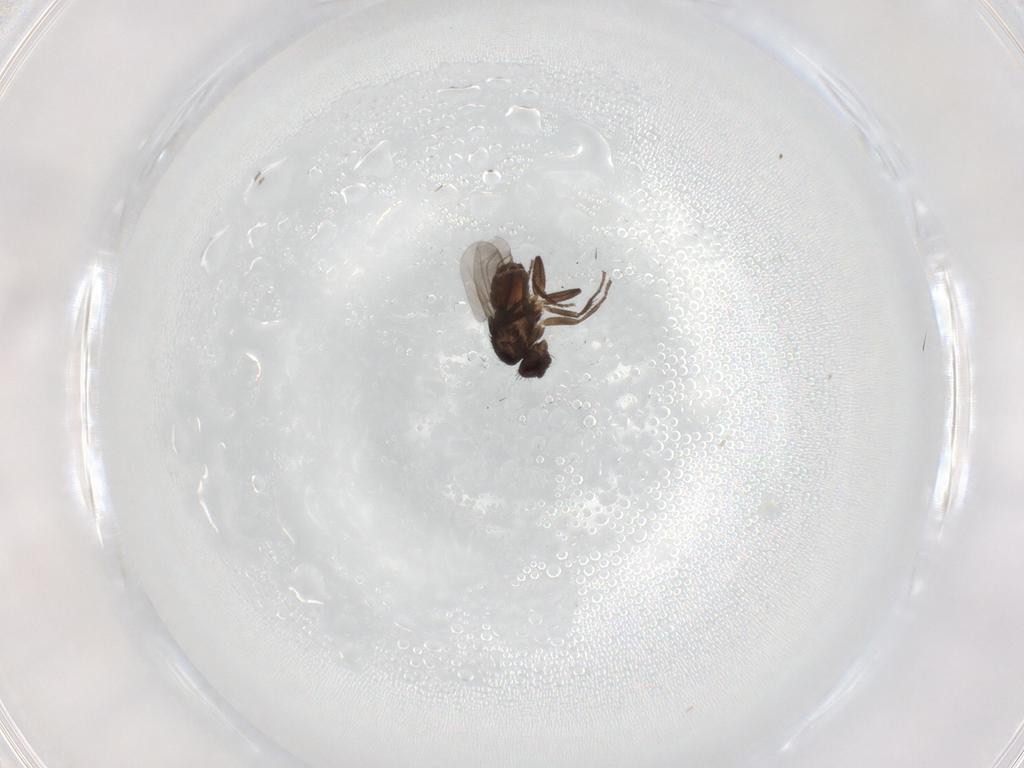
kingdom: Animalia
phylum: Arthropoda
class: Insecta
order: Diptera
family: Sphaeroceridae
